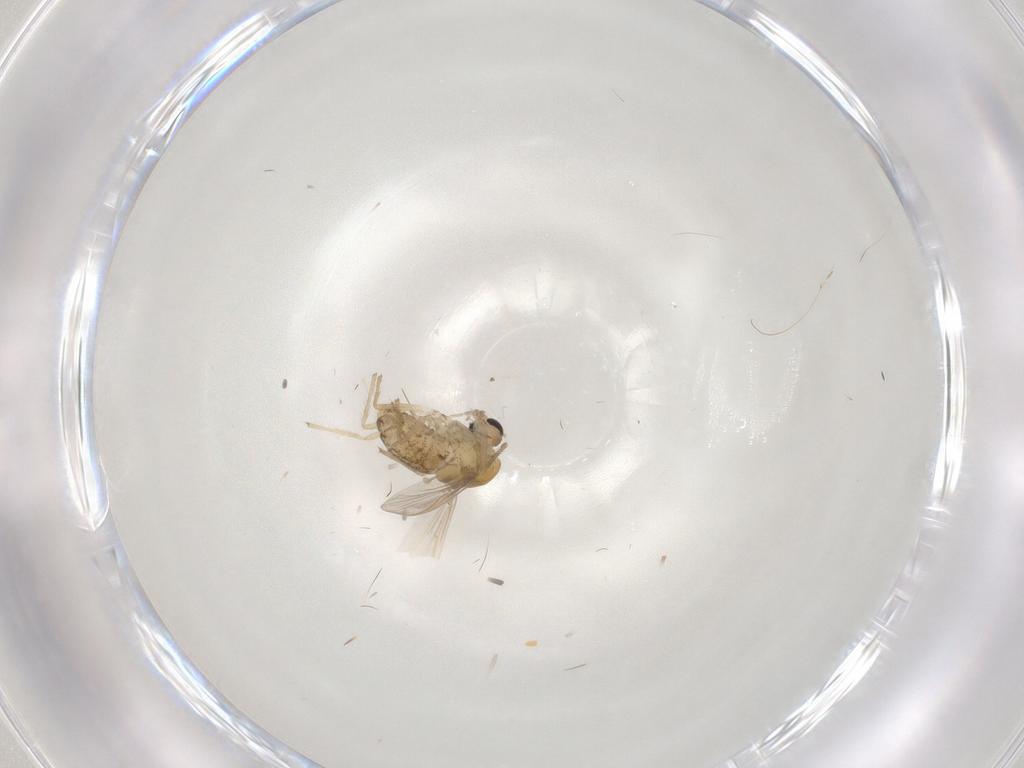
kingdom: Animalia
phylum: Arthropoda
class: Insecta
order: Diptera
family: Chironomidae
